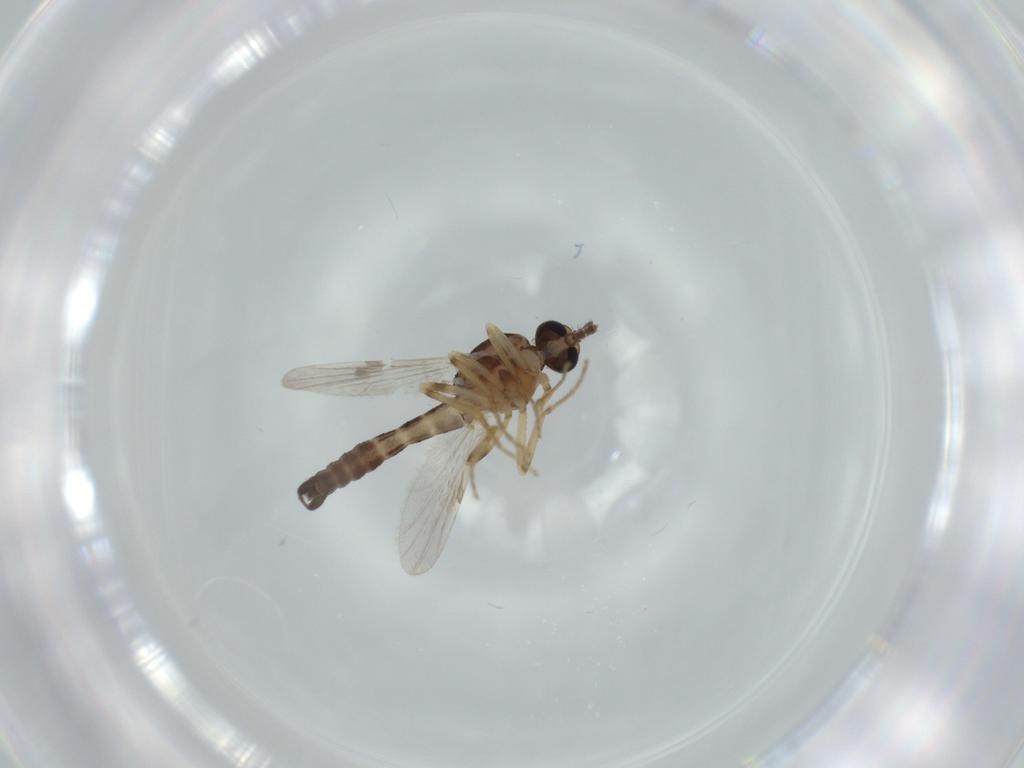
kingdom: Animalia
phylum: Arthropoda
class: Insecta
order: Diptera
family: Ceratopogonidae
